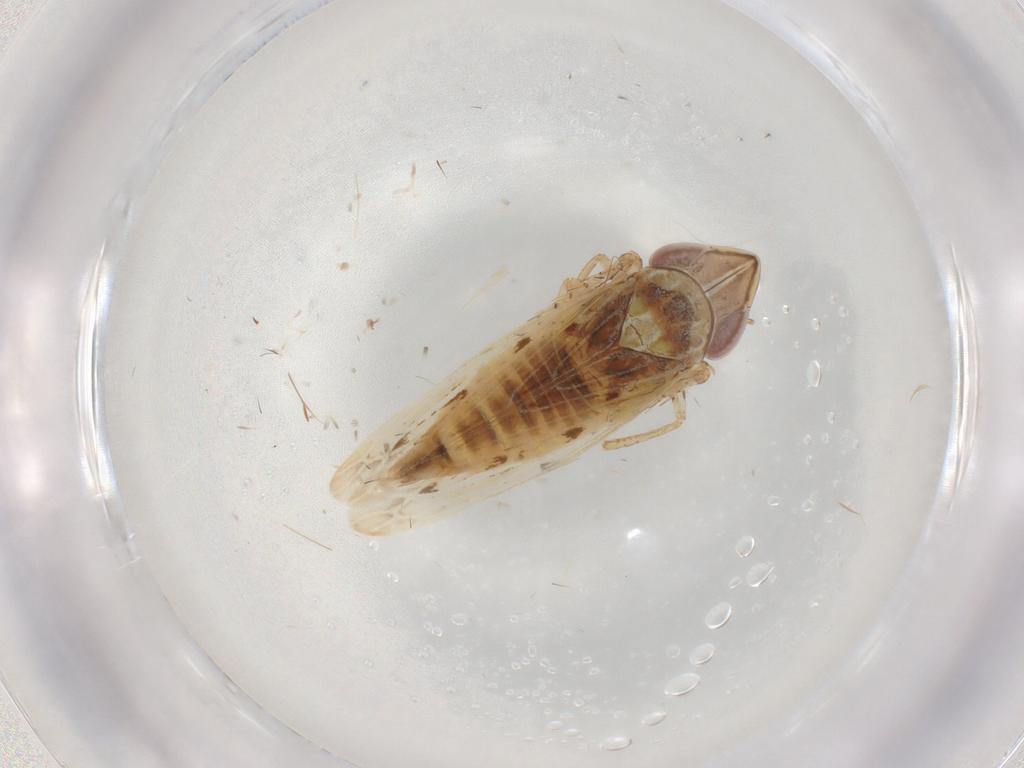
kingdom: Animalia
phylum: Arthropoda
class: Insecta
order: Hemiptera
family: Cicadellidae
